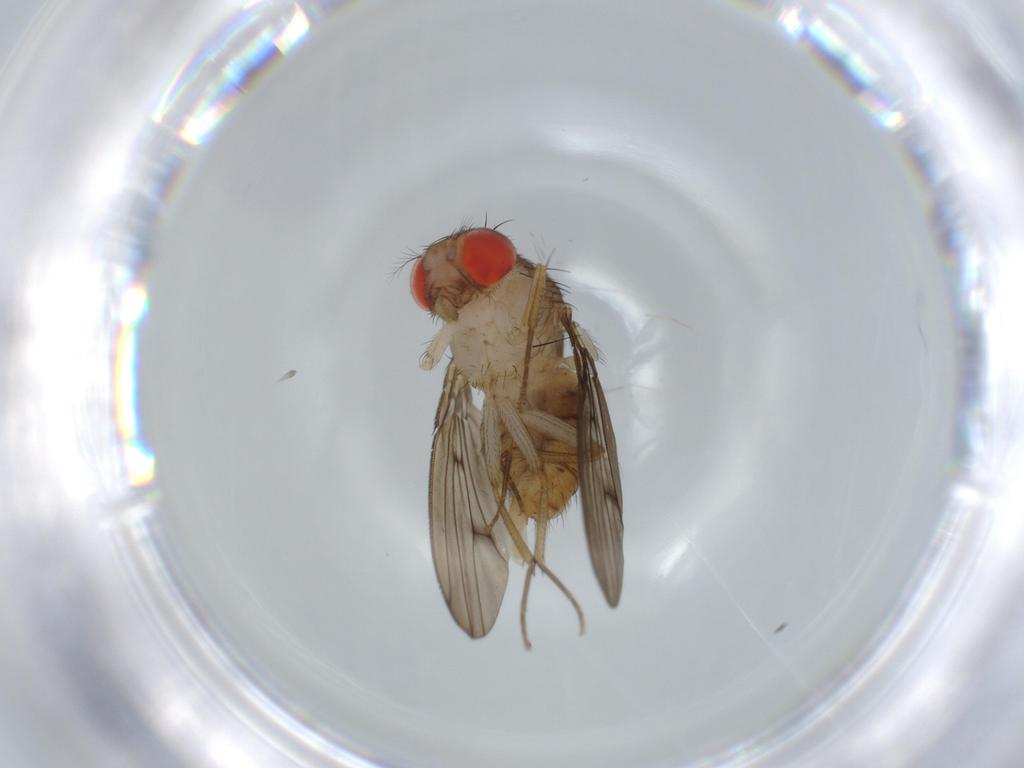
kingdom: Animalia
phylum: Arthropoda
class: Insecta
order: Diptera
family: Drosophilidae
